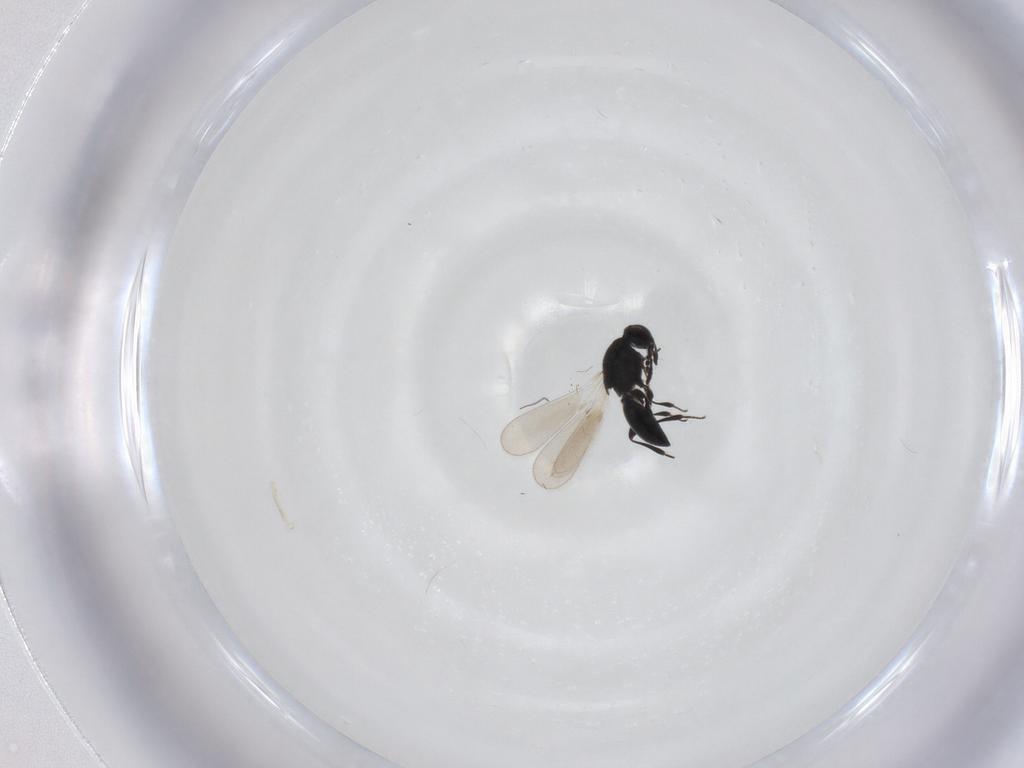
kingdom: Animalia
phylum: Arthropoda
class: Insecta
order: Hymenoptera
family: Platygastridae
